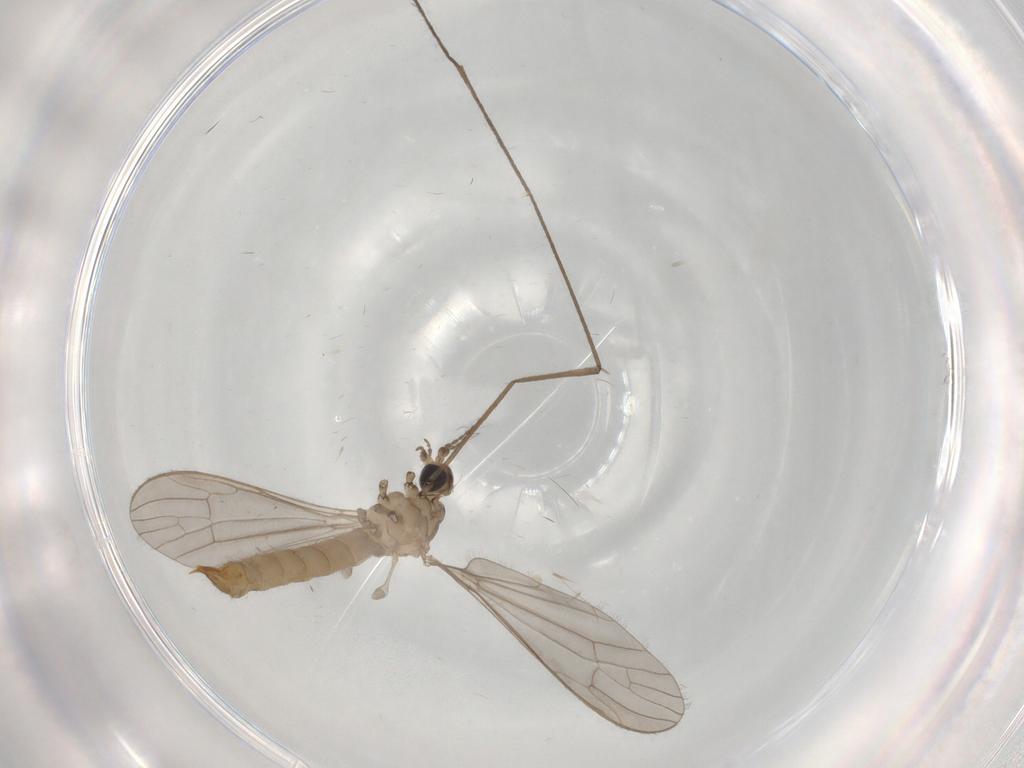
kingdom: Animalia
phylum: Arthropoda
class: Insecta
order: Diptera
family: Limoniidae
